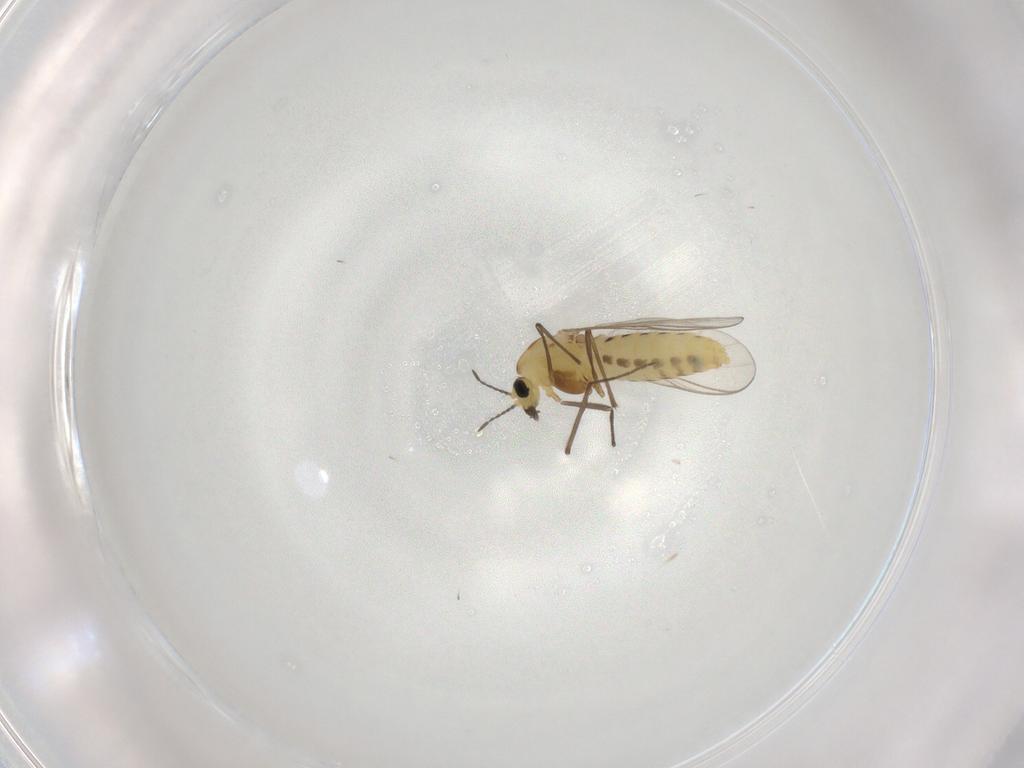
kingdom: Animalia
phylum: Arthropoda
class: Insecta
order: Diptera
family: Chironomidae
